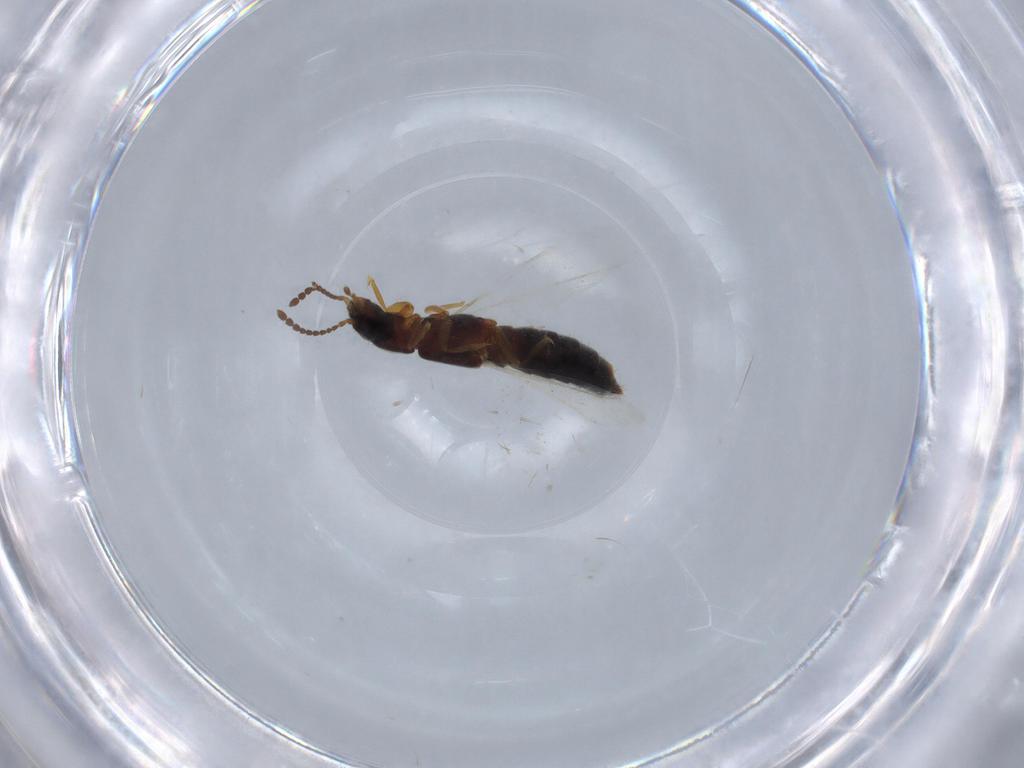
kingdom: Animalia
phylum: Arthropoda
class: Insecta
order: Coleoptera
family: Staphylinidae
